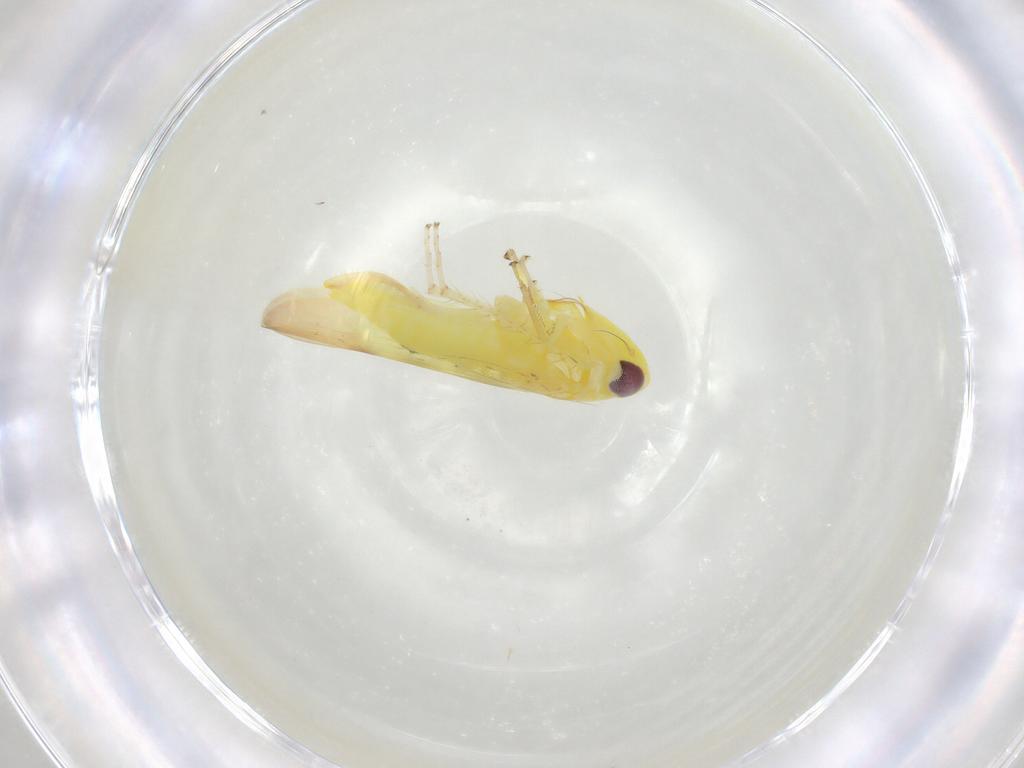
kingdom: Animalia
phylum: Arthropoda
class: Insecta
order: Hemiptera
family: Cicadellidae
